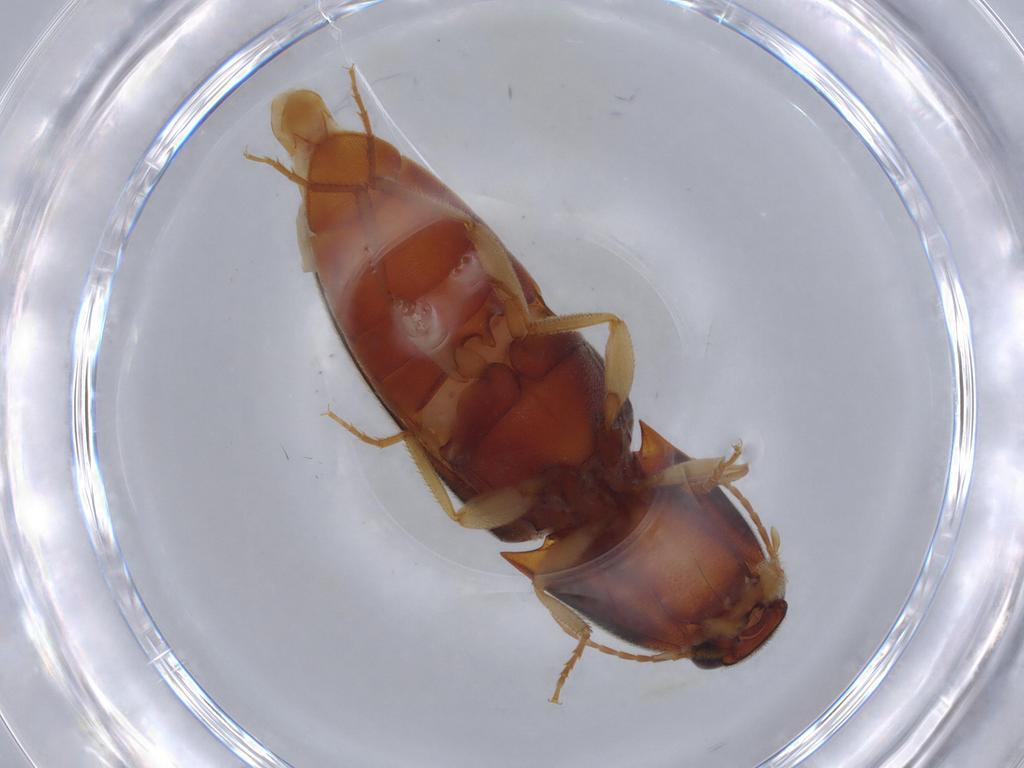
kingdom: Animalia
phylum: Arthropoda
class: Insecta
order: Coleoptera
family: Elateridae
